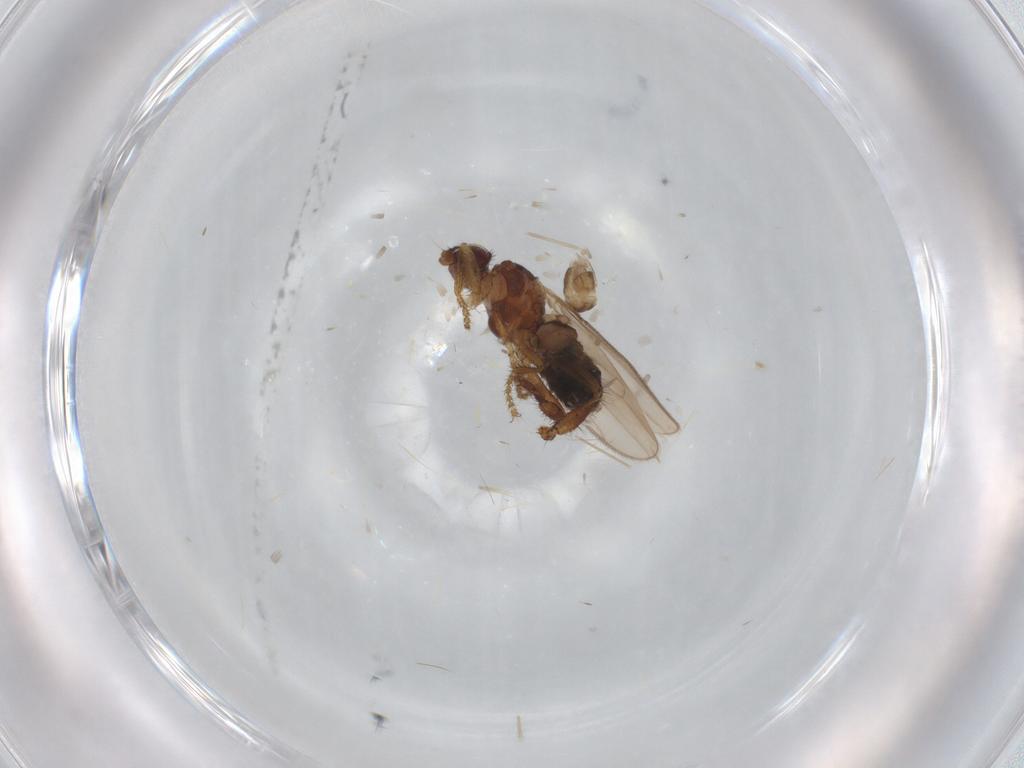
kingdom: Animalia
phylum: Arthropoda
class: Insecta
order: Diptera
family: Sphaeroceridae
